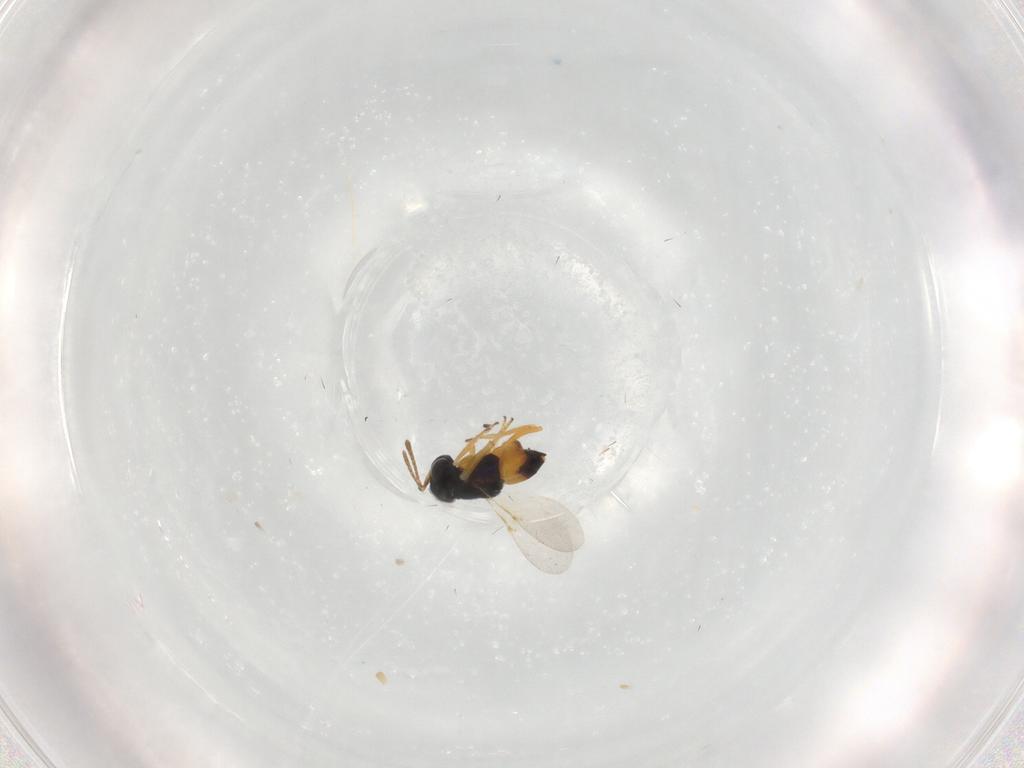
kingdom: Animalia
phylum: Arthropoda
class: Insecta
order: Hymenoptera
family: Encyrtidae
